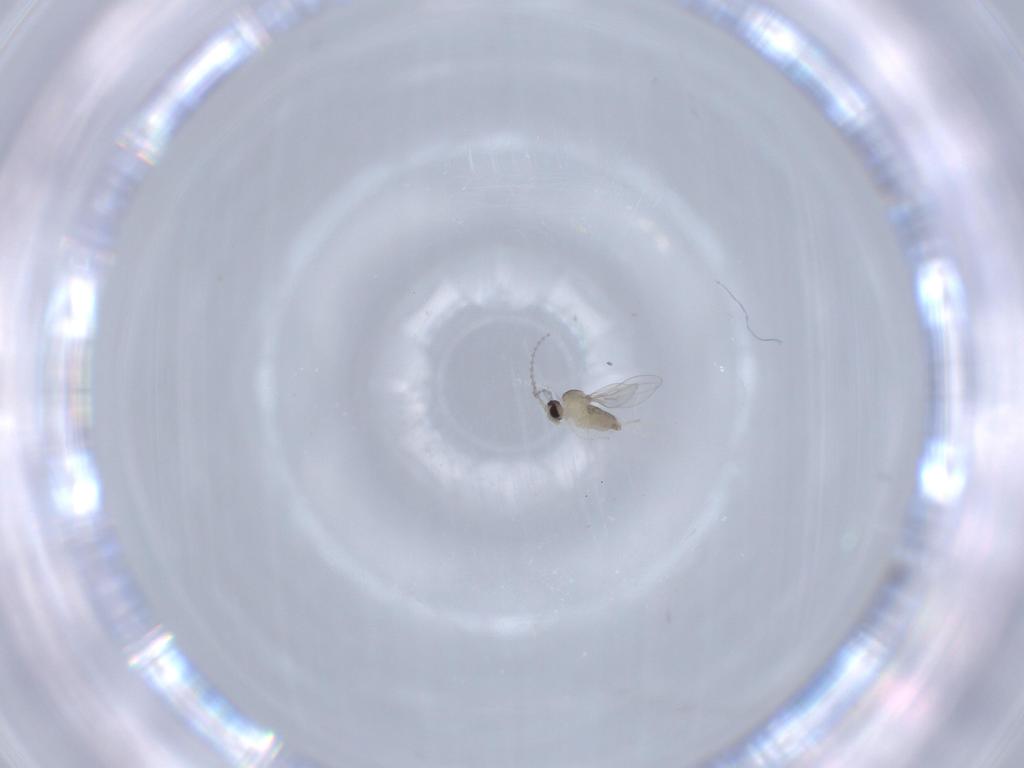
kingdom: Animalia
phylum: Arthropoda
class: Insecta
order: Diptera
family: Cecidomyiidae
